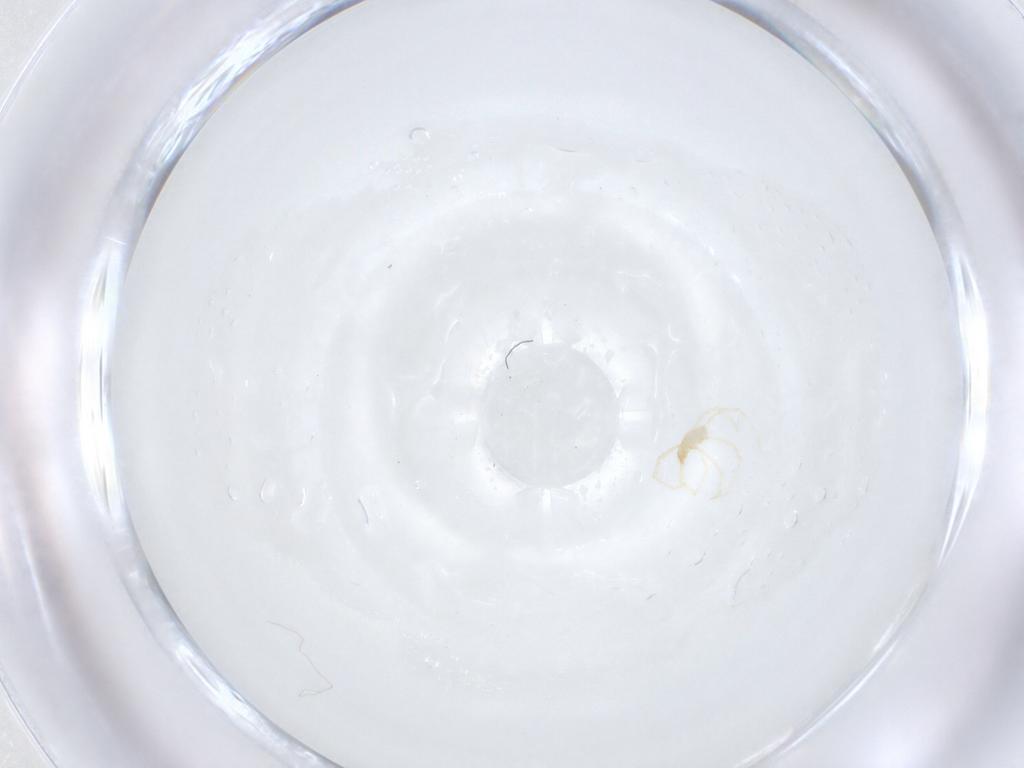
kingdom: Animalia
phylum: Arthropoda
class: Arachnida
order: Trombidiformes
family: Erythraeidae
